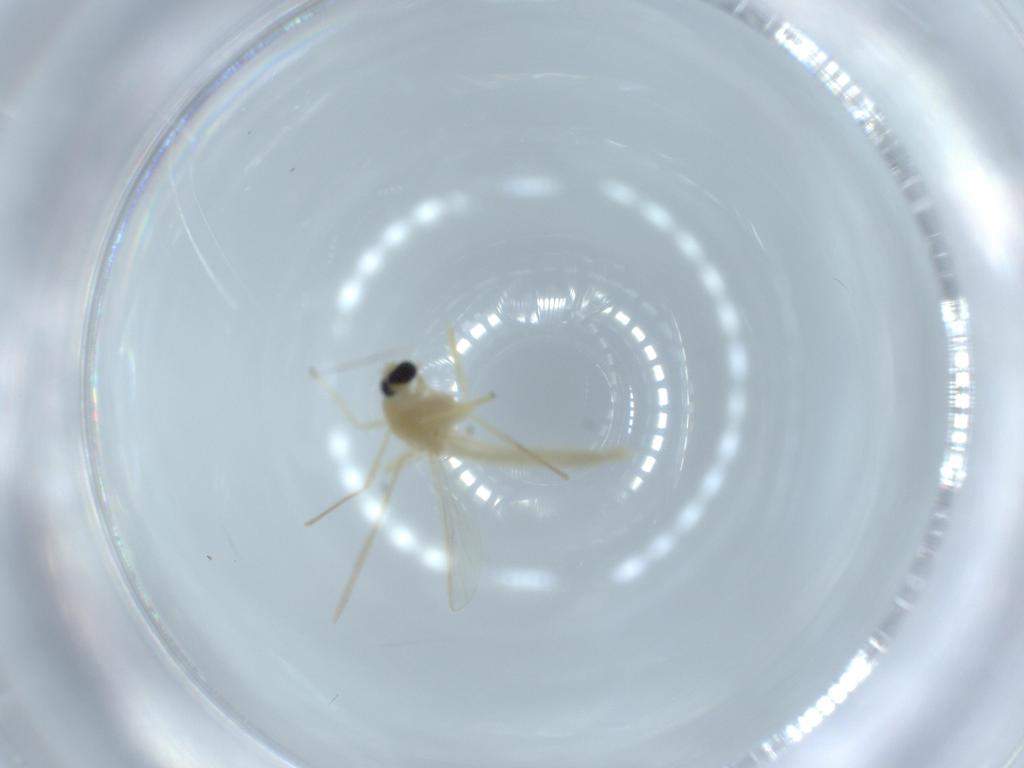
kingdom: Animalia
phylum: Arthropoda
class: Insecta
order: Diptera
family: Chironomidae
